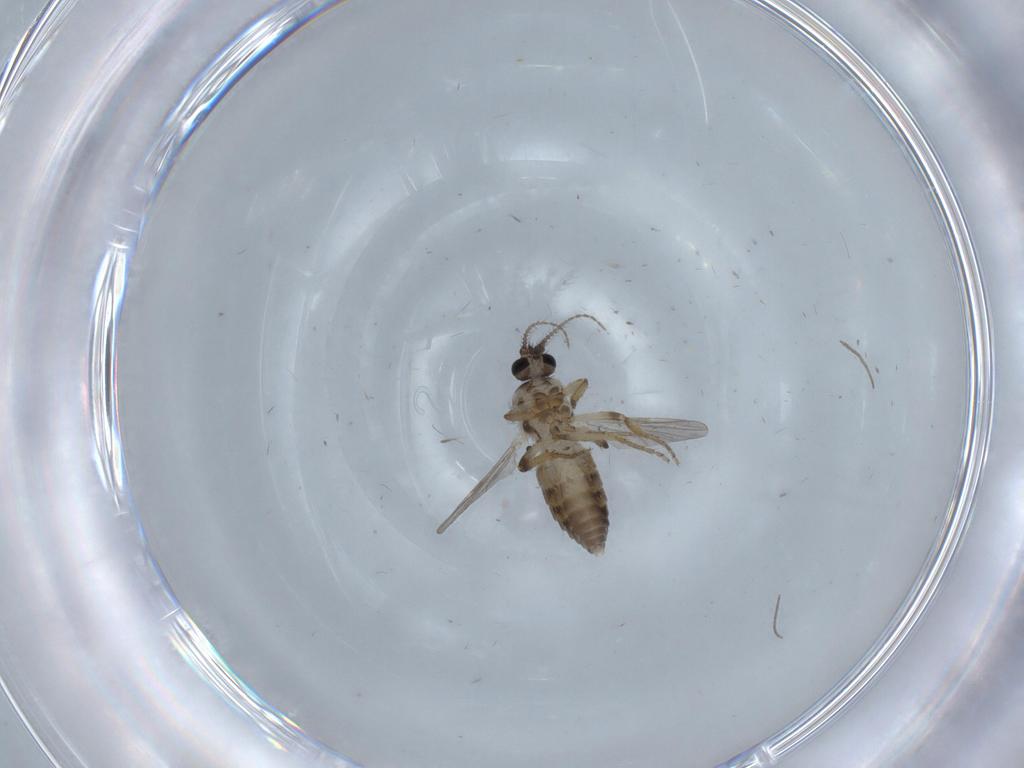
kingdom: Animalia
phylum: Arthropoda
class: Insecta
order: Diptera
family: Ceratopogonidae
